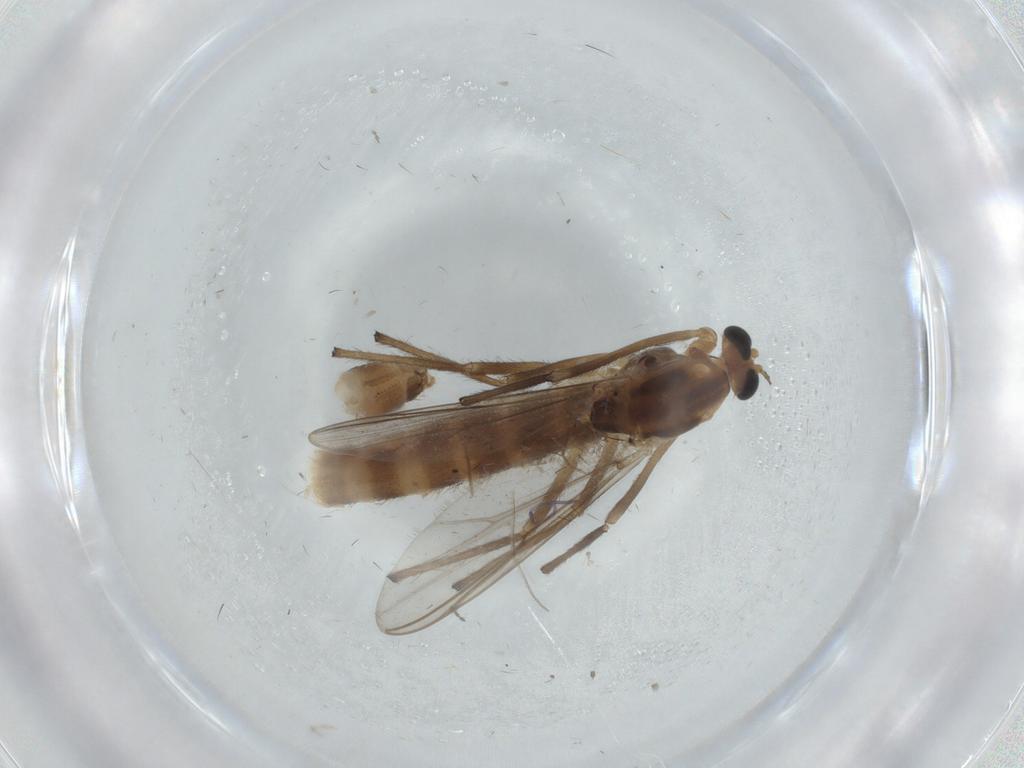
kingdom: Animalia
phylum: Arthropoda
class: Insecta
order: Diptera
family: Chironomidae
